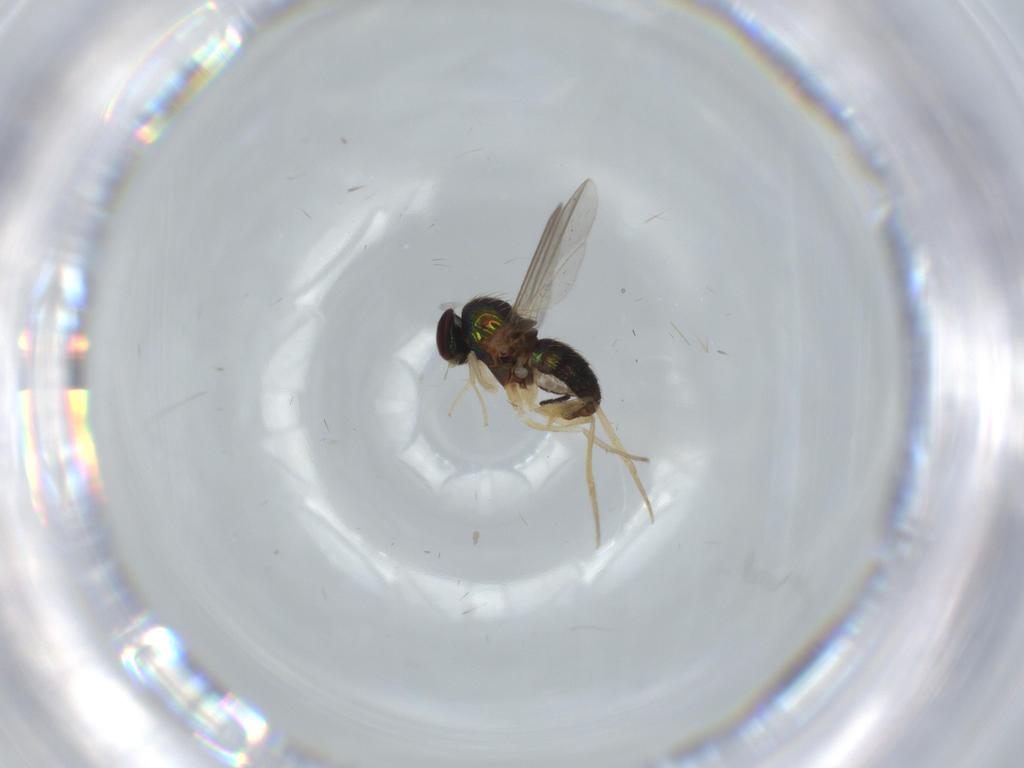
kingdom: Animalia
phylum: Arthropoda
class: Insecta
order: Diptera
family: Dolichopodidae
